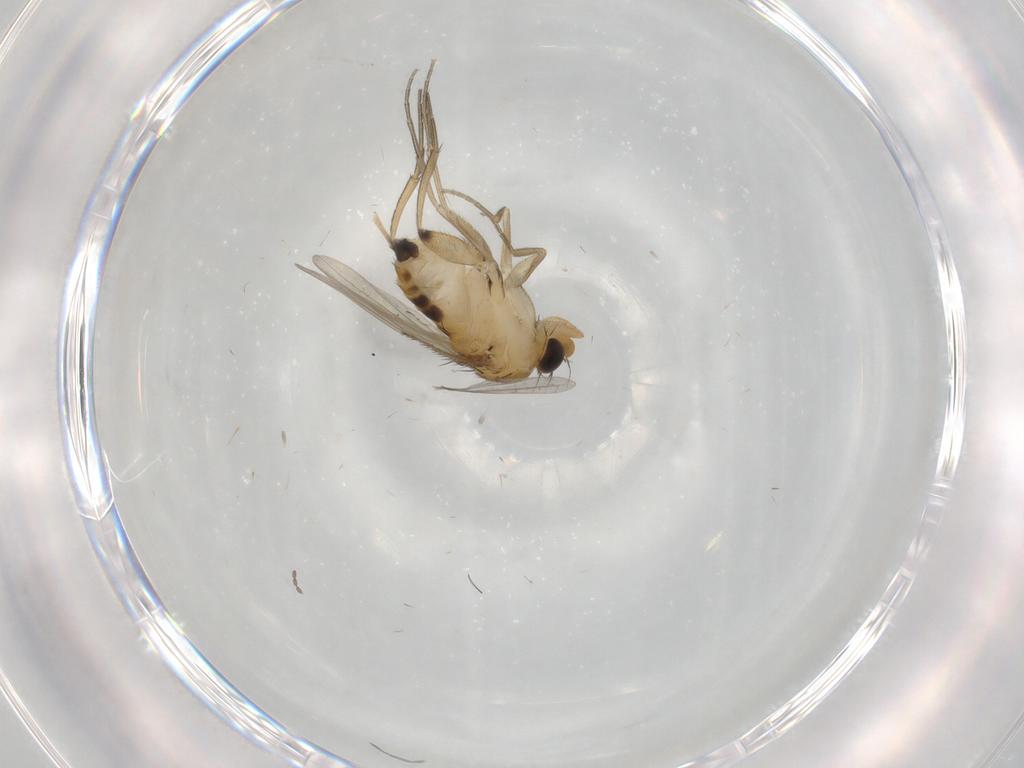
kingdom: Animalia
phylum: Arthropoda
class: Insecta
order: Diptera
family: Phoridae
